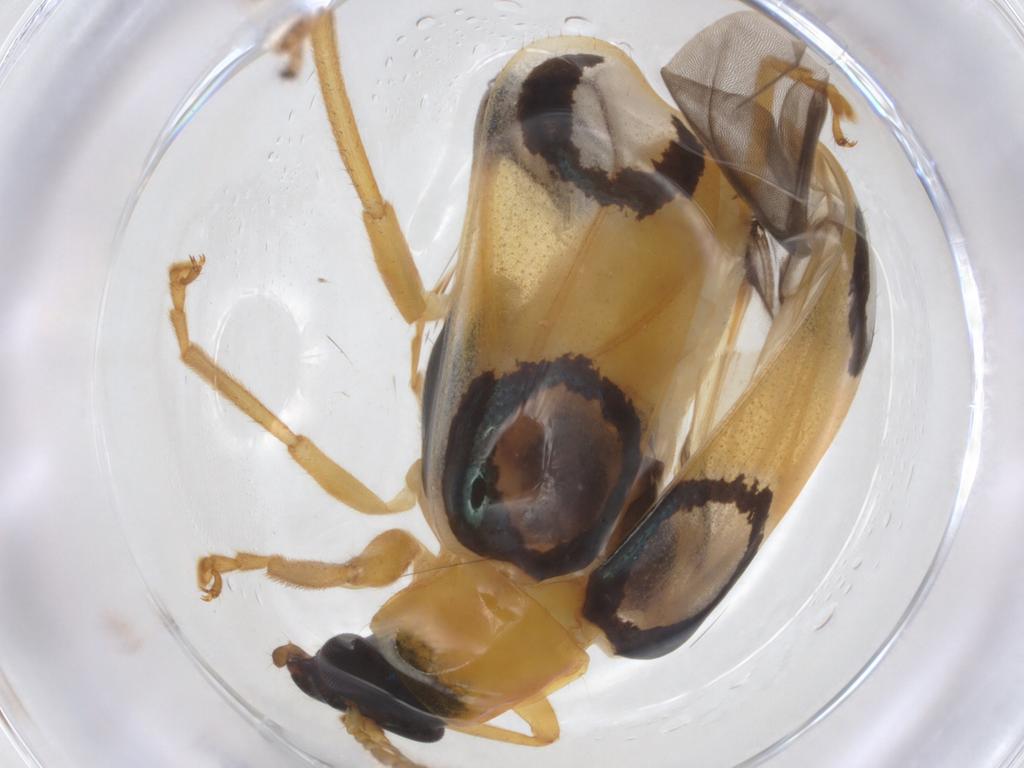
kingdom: Animalia
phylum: Arthropoda
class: Insecta
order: Coleoptera
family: Chrysomelidae
